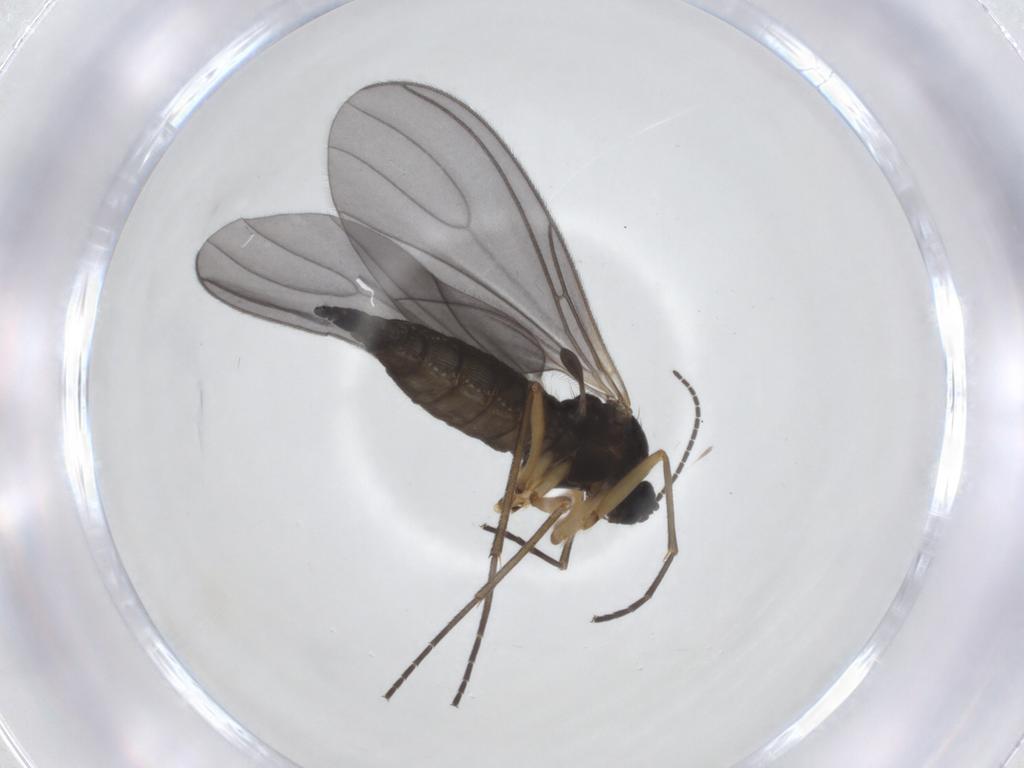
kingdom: Animalia
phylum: Arthropoda
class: Insecta
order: Diptera
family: Sciaridae
